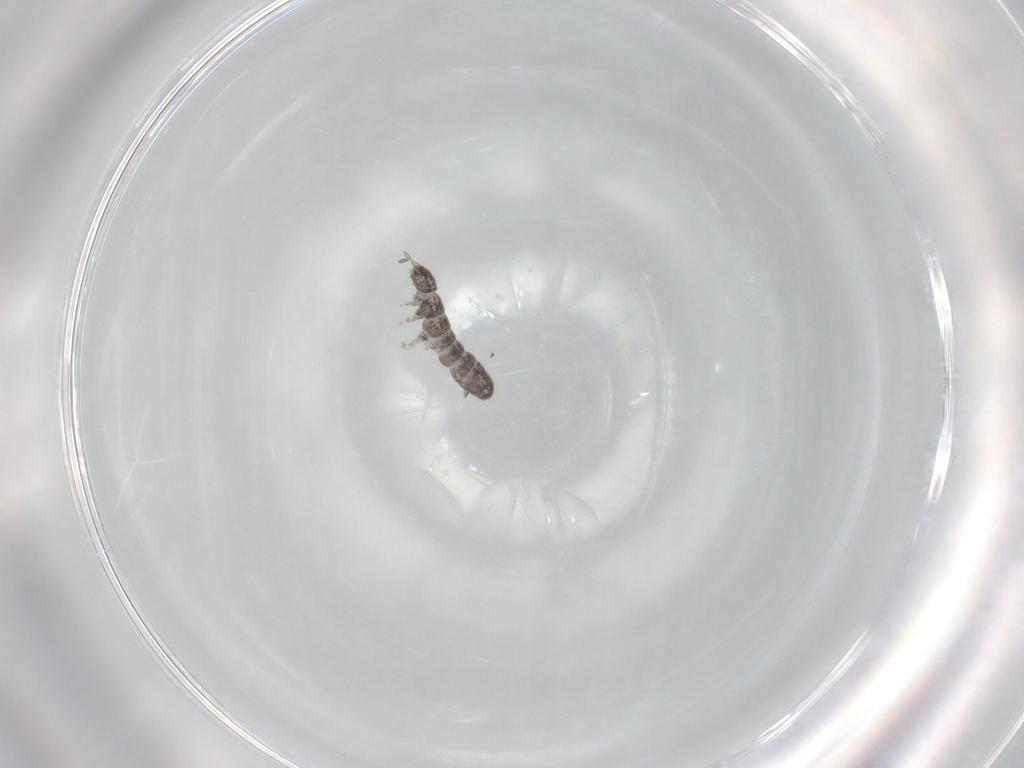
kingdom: Animalia
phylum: Arthropoda
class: Collembola
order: Entomobryomorpha
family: Isotomidae
